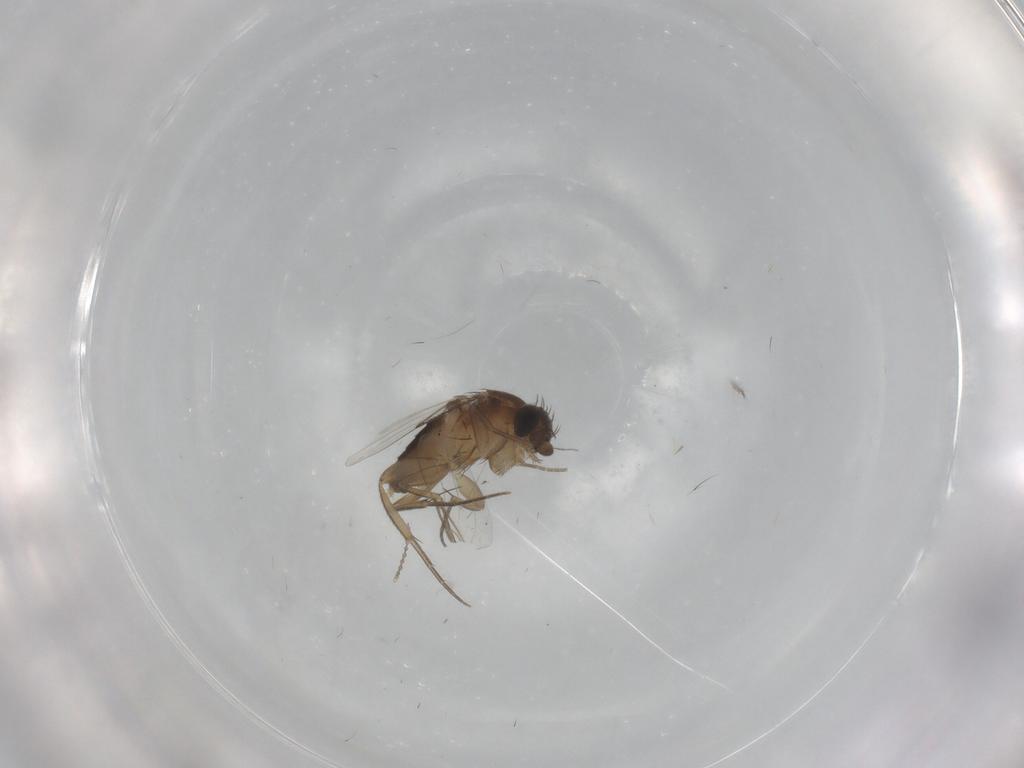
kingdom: Animalia
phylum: Arthropoda
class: Insecta
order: Diptera
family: Phoridae
